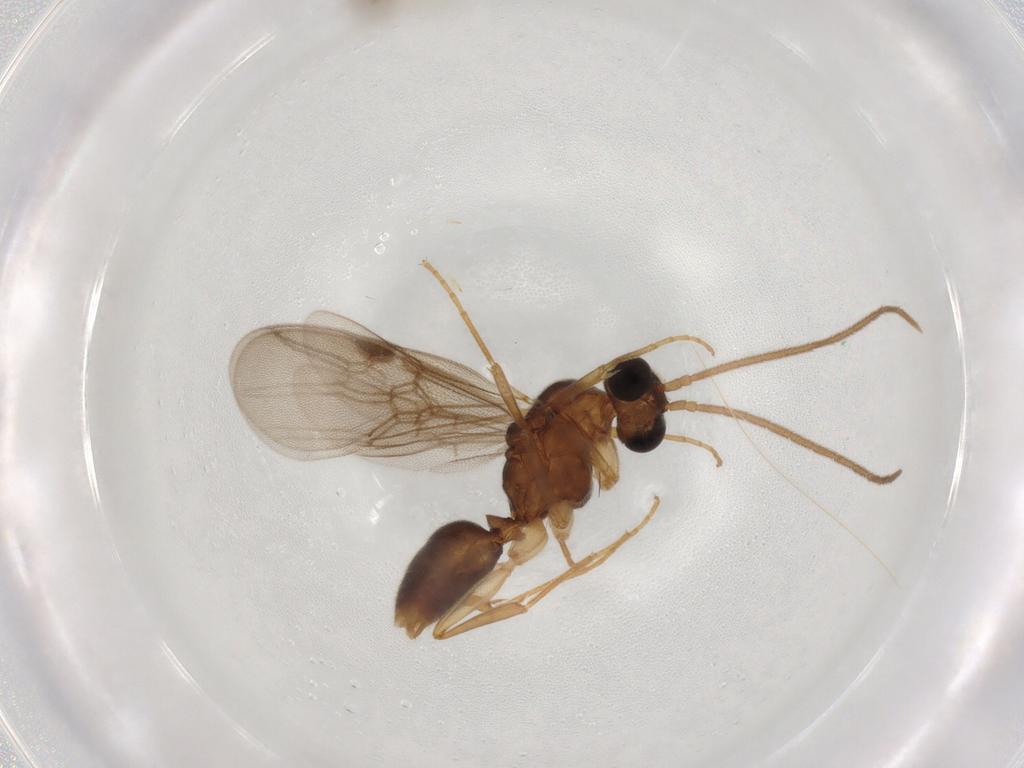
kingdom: Animalia
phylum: Arthropoda
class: Insecta
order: Hymenoptera
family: Formicidae
